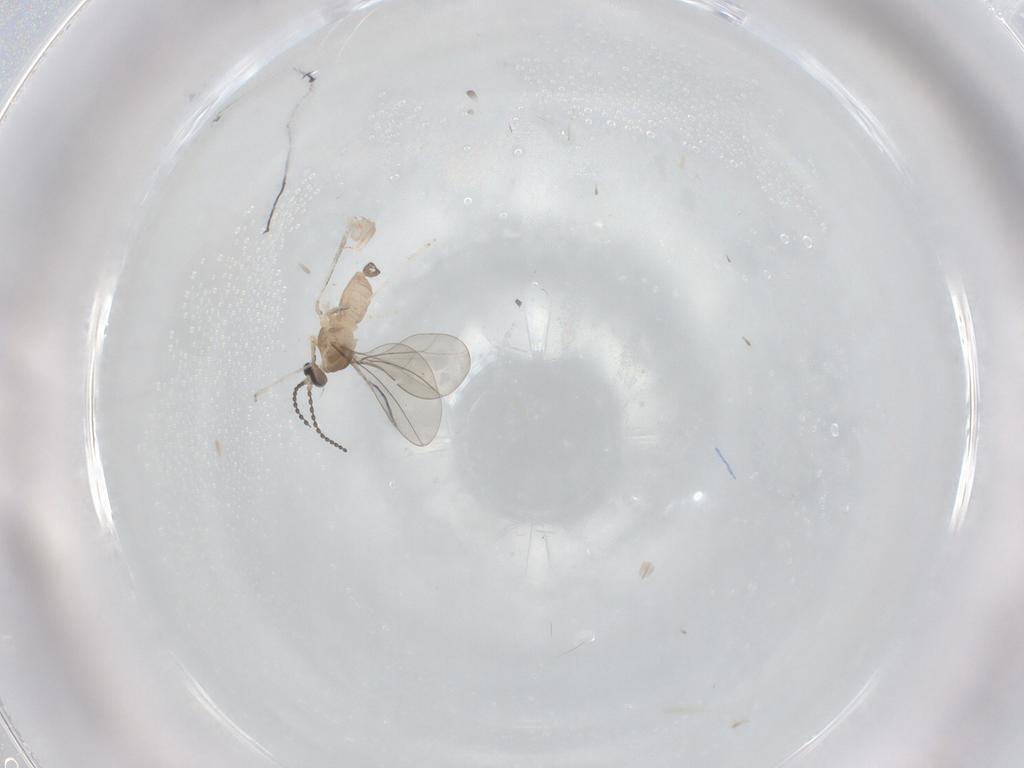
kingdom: Animalia
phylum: Arthropoda
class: Insecta
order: Diptera
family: Cecidomyiidae
